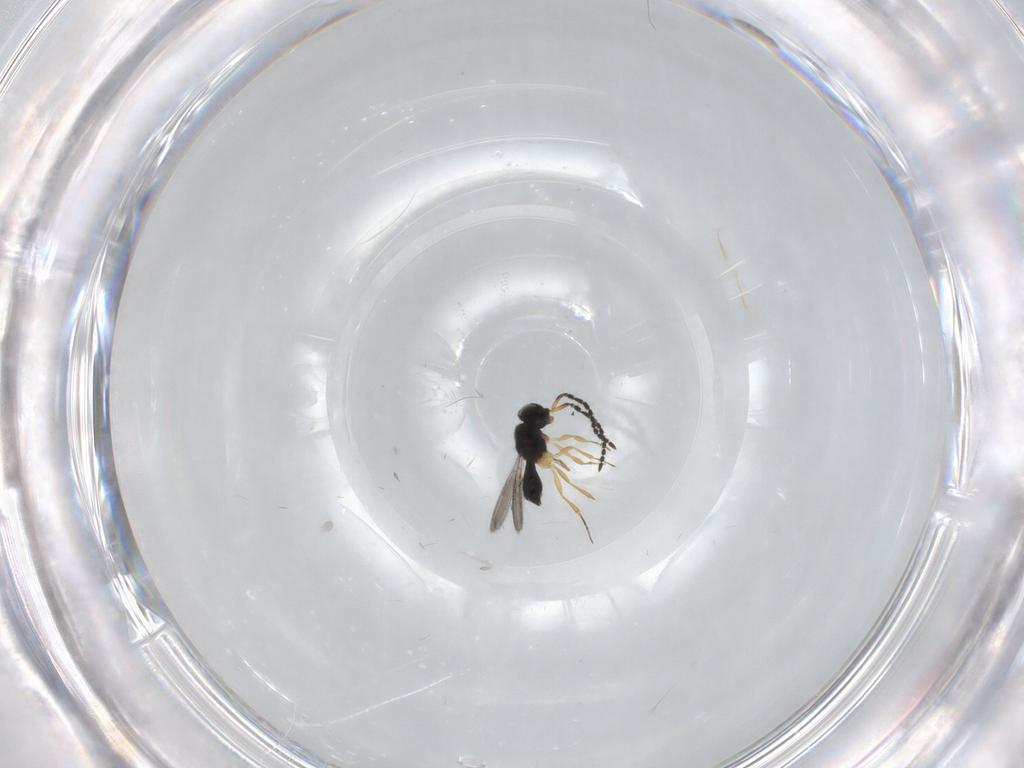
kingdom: Animalia
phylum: Arthropoda
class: Insecta
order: Hymenoptera
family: Scelionidae
